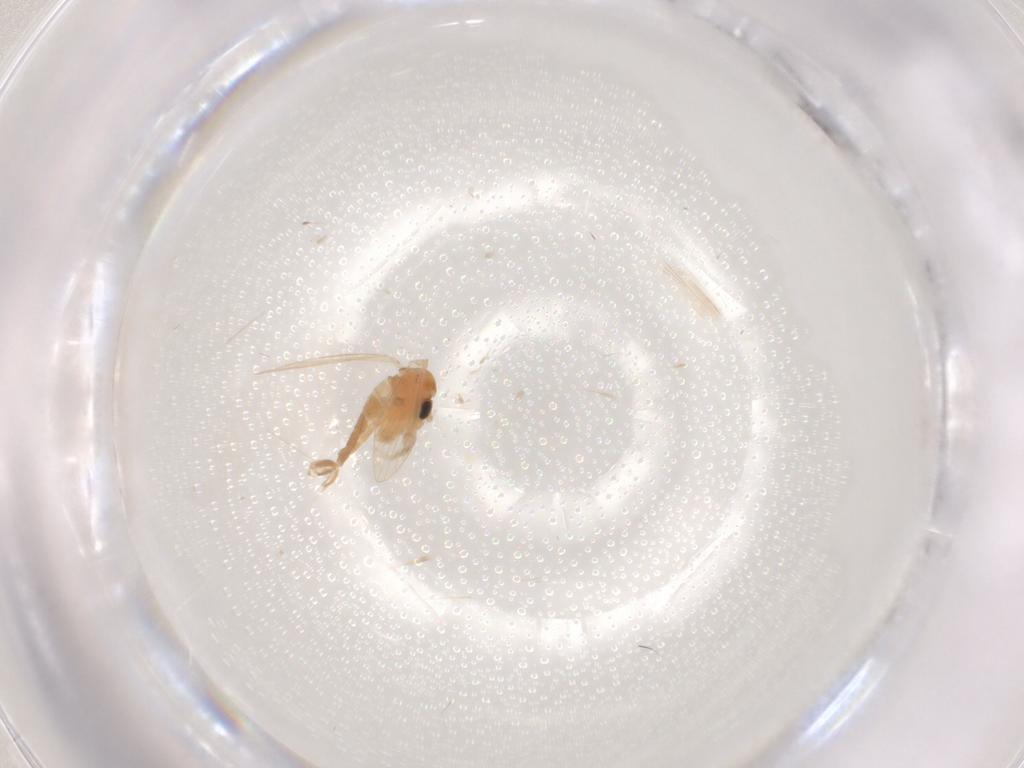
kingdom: Animalia
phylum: Arthropoda
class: Insecta
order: Diptera
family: Psychodidae
